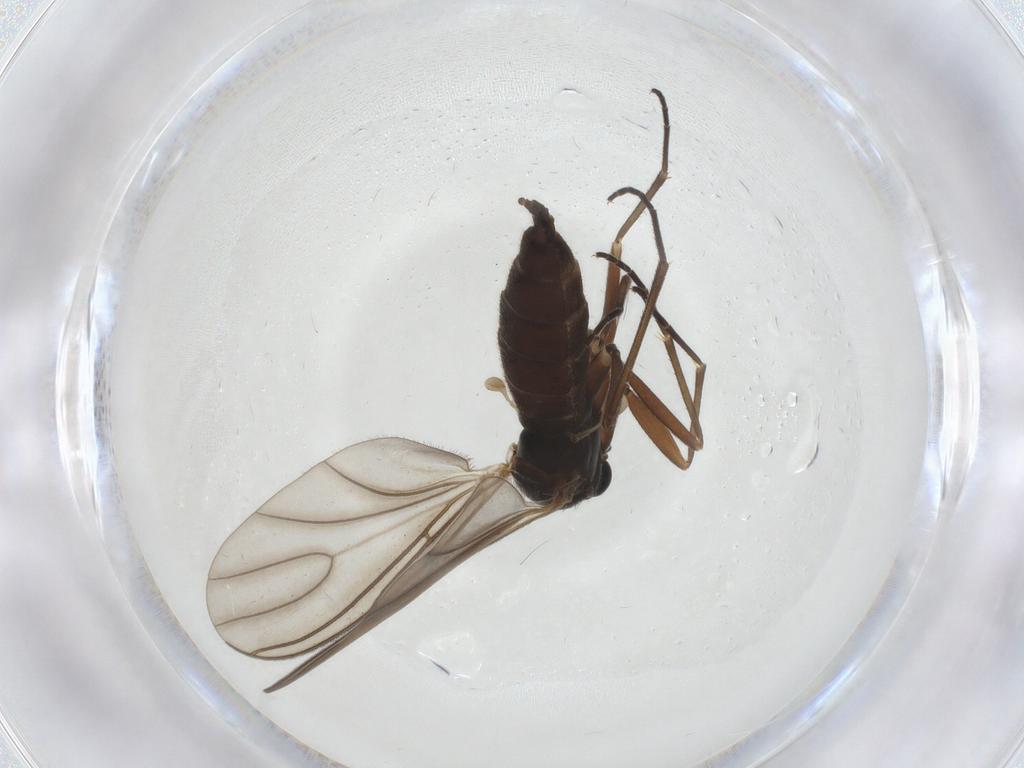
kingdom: Animalia
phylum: Arthropoda
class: Insecta
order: Diptera
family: Sciaridae
